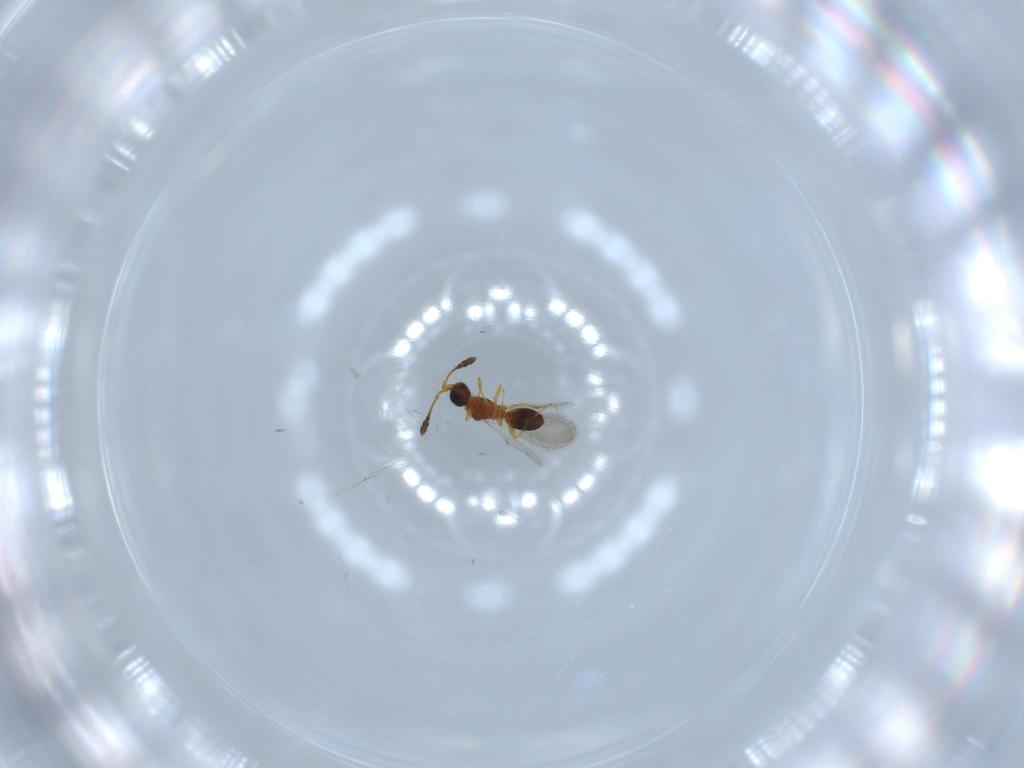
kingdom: Animalia
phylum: Arthropoda
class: Insecta
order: Hymenoptera
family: Diapriidae
